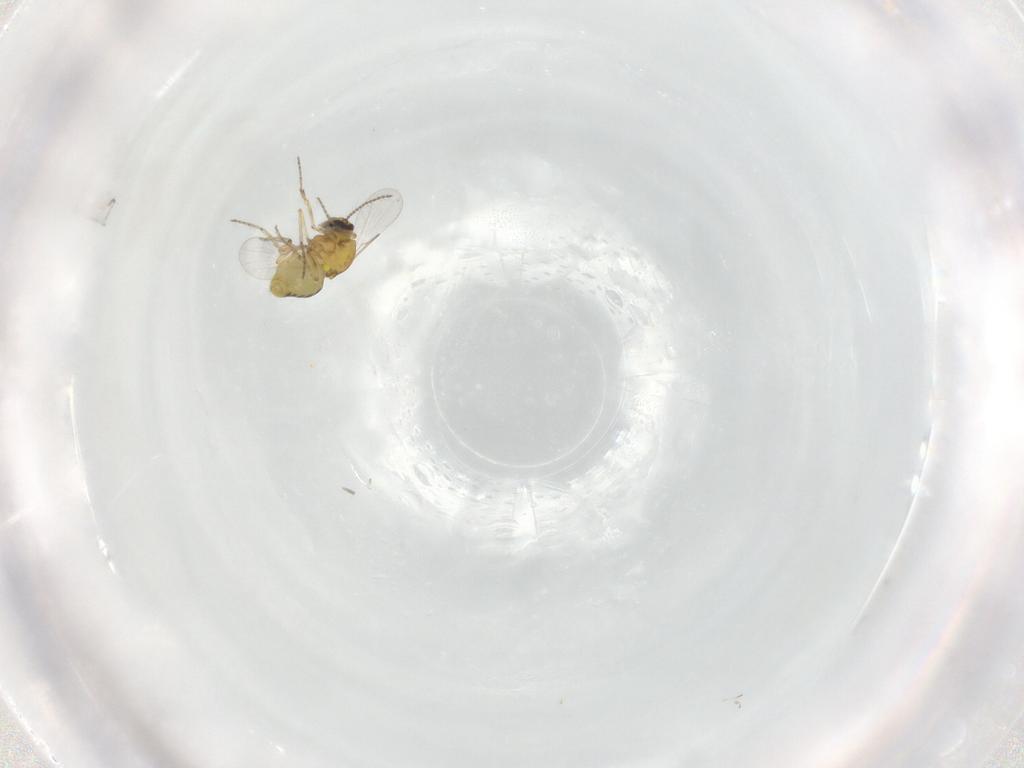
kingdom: Animalia
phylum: Arthropoda
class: Insecta
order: Diptera
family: Ceratopogonidae
